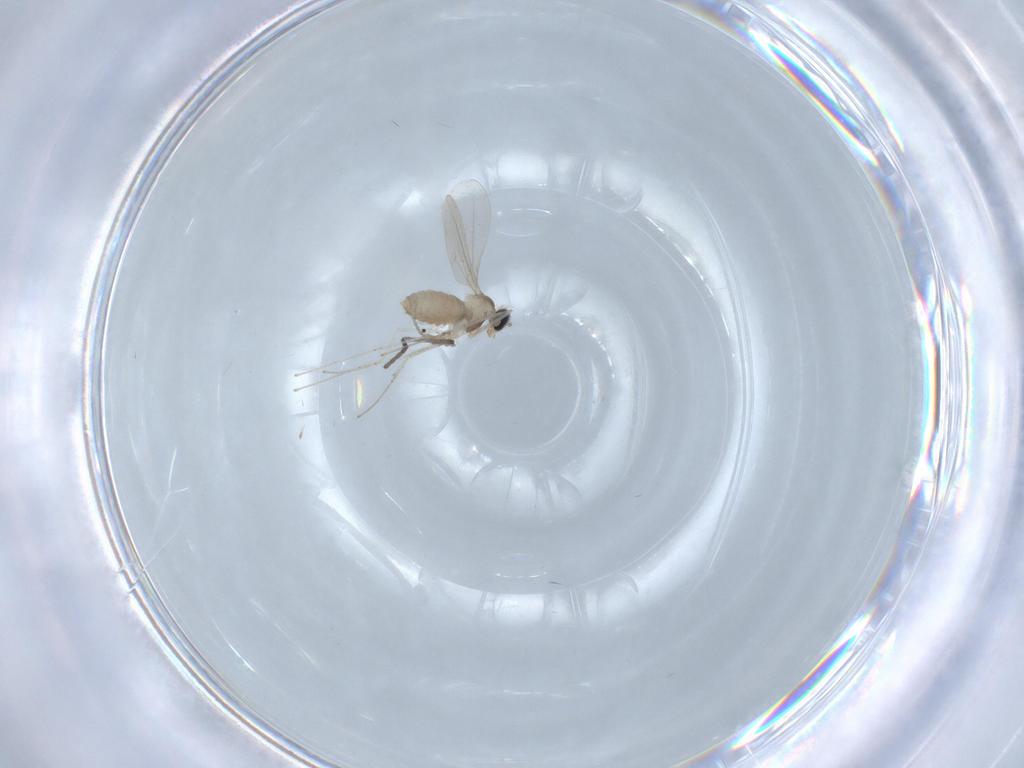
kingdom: Animalia
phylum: Arthropoda
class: Insecta
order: Diptera
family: Cecidomyiidae
